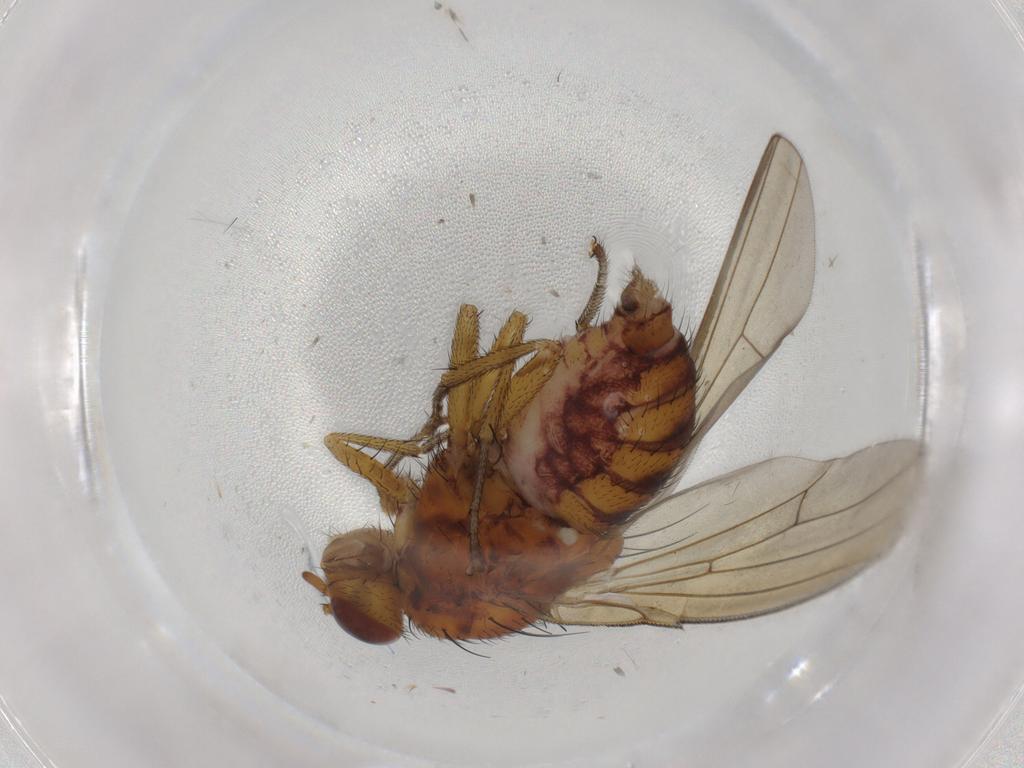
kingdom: Animalia
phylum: Arthropoda
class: Insecta
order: Diptera
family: Lauxaniidae
